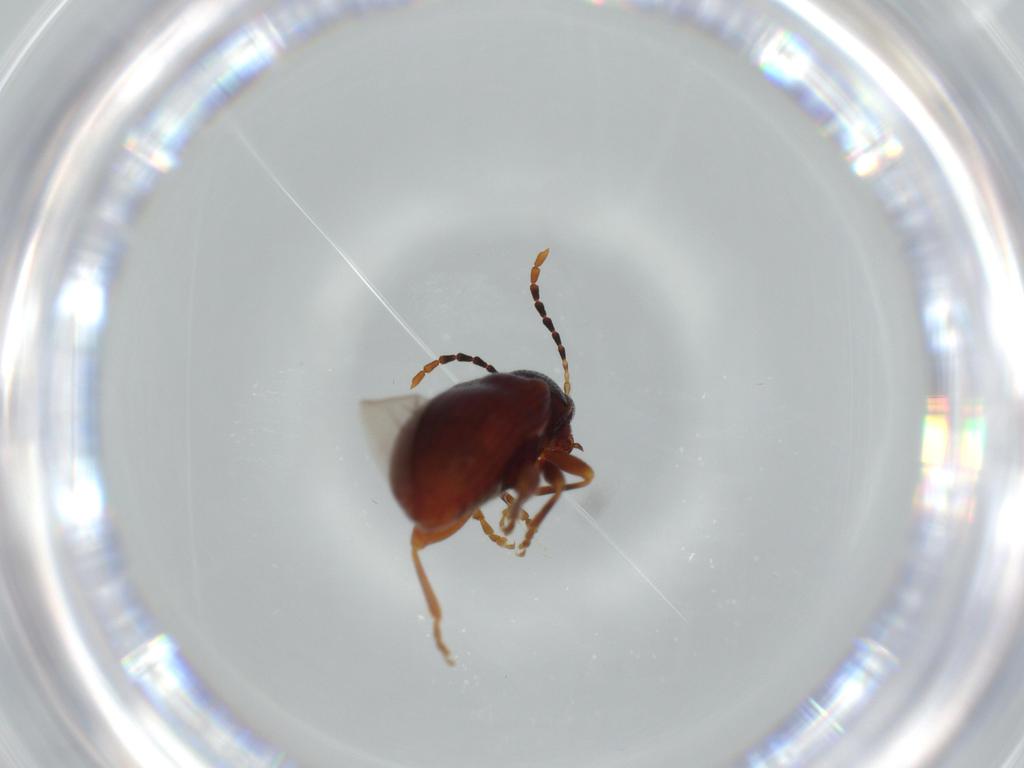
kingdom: Animalia
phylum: Arthropoda
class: Insecta
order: Coleoptera
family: Chrysomelidae
